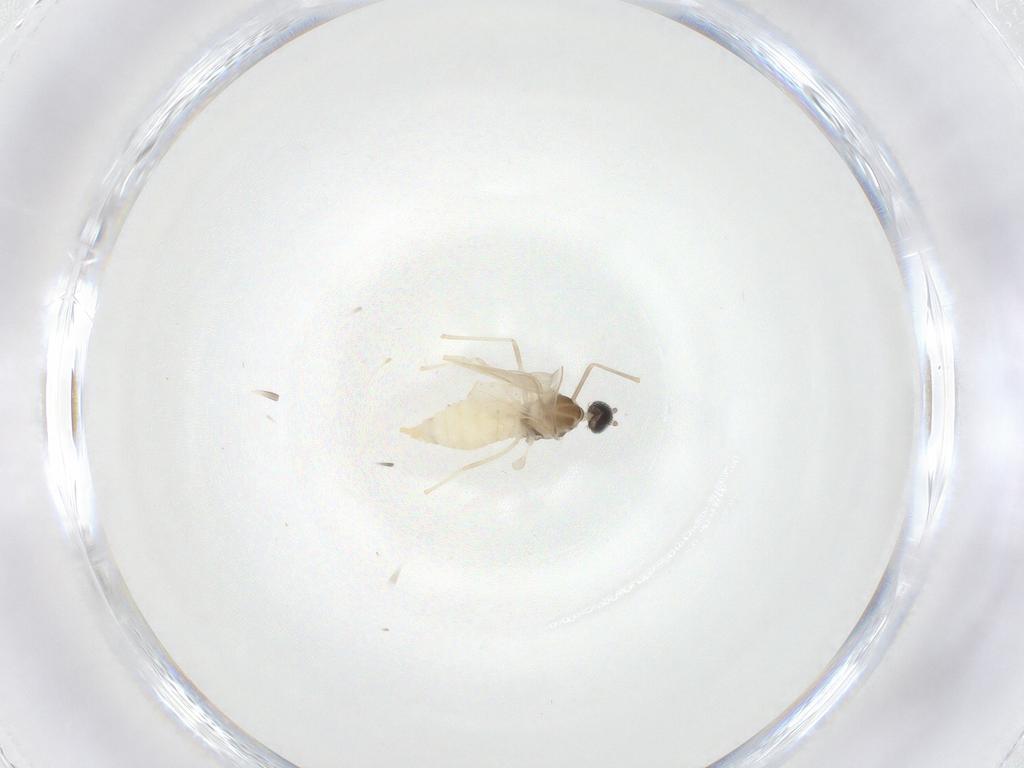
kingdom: Animalia
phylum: Arthropoda
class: Insecta
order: Diptera
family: Cecidomyiidae
